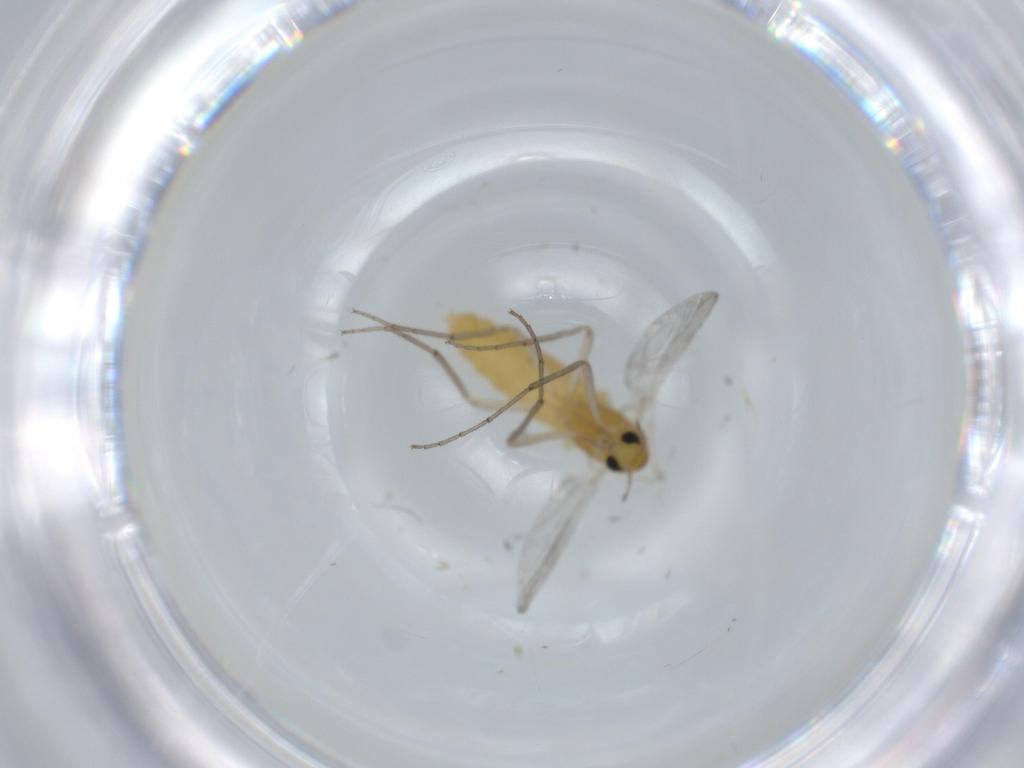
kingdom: Animalia
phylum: Arthropoda
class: Insecta
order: Diptera
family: Chironomidae
